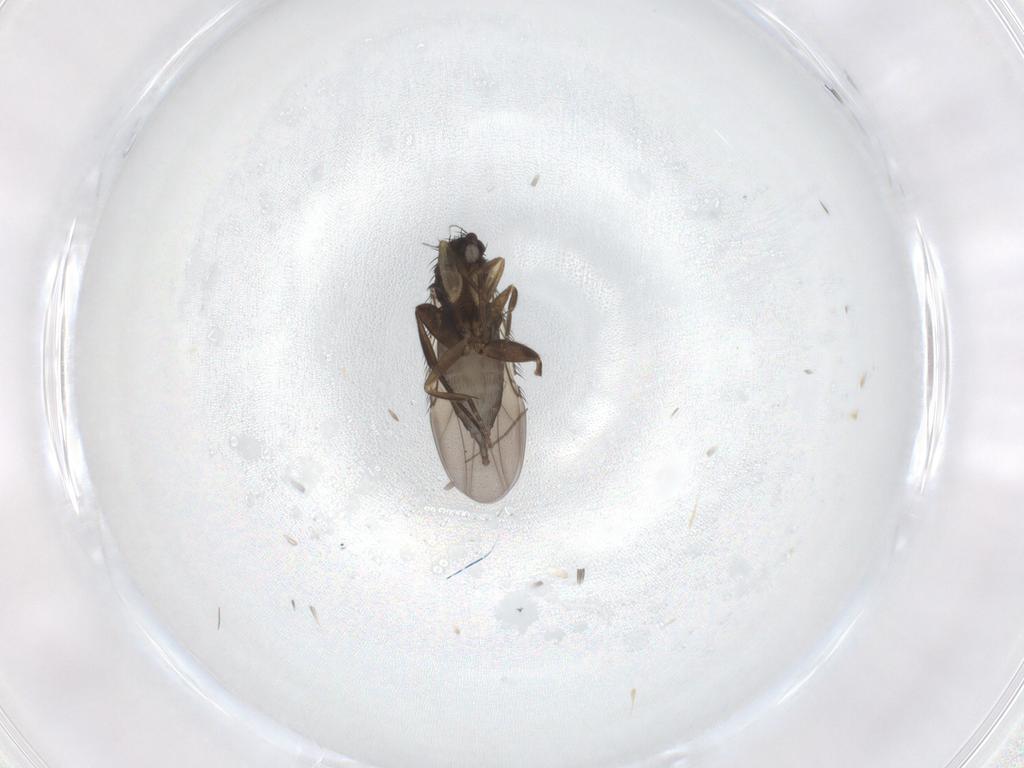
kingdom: Animalia
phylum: Arthropoda
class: Insecta
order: Diptera
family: Phoridae
